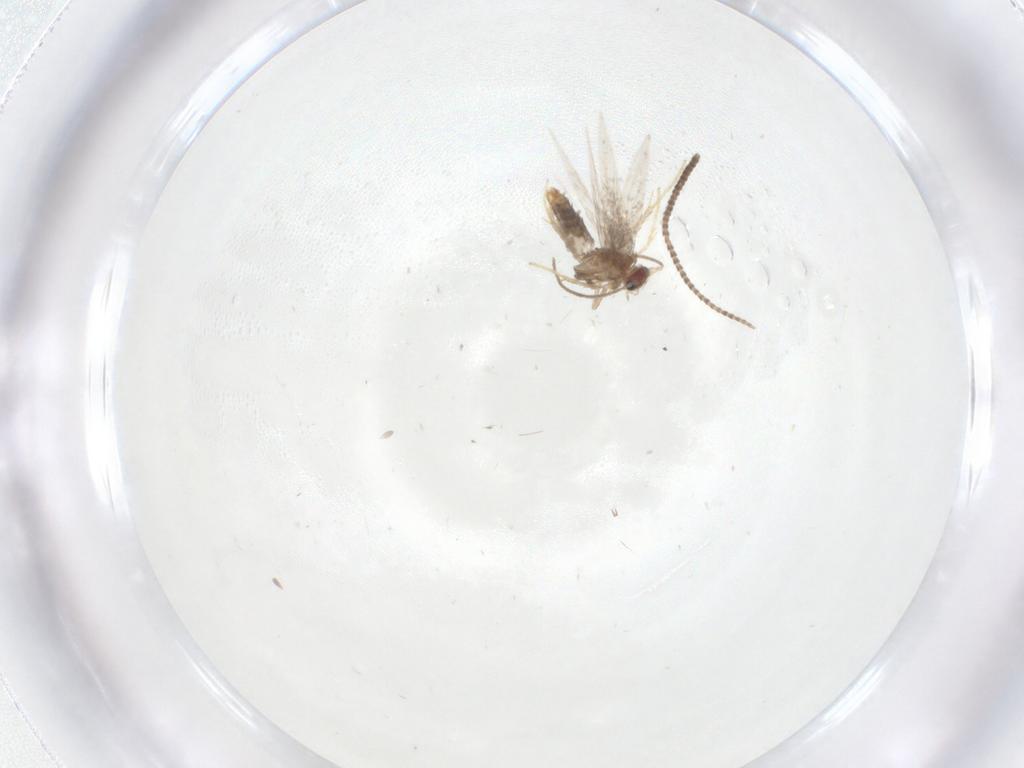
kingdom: Animalia
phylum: Arthropoda
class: Insecta
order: Lepidoptera
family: Crambidae
